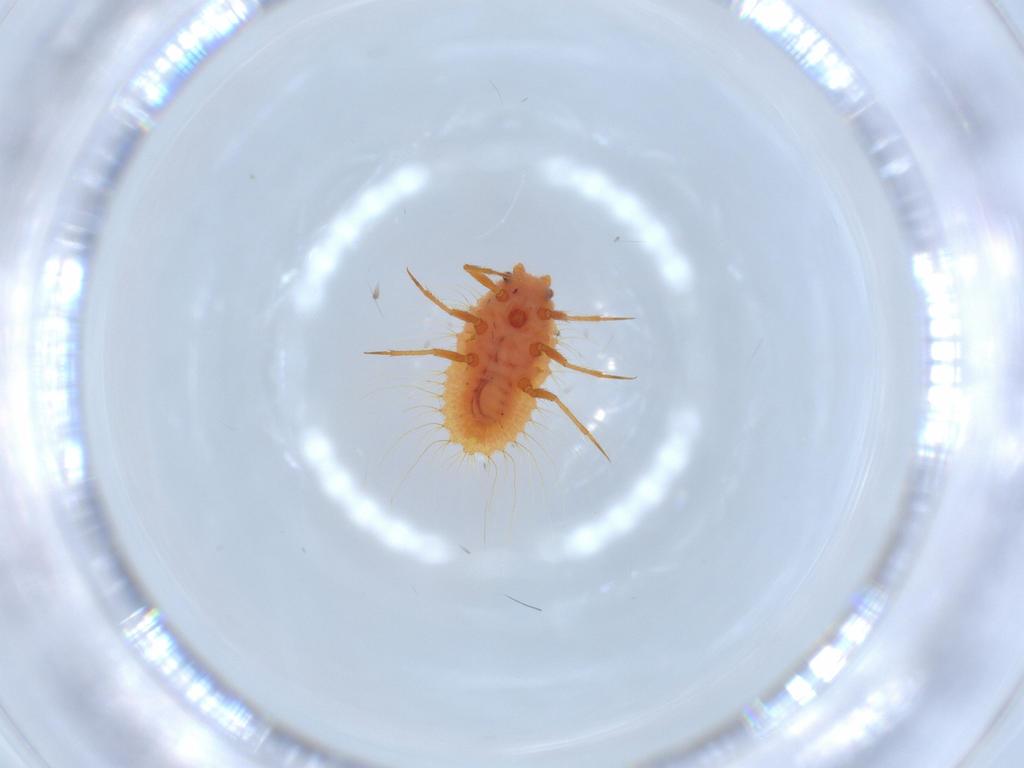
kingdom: Animalia
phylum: Arthropoda
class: Insecta
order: Hemiptera
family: Coccoidea_incertae_sedis
